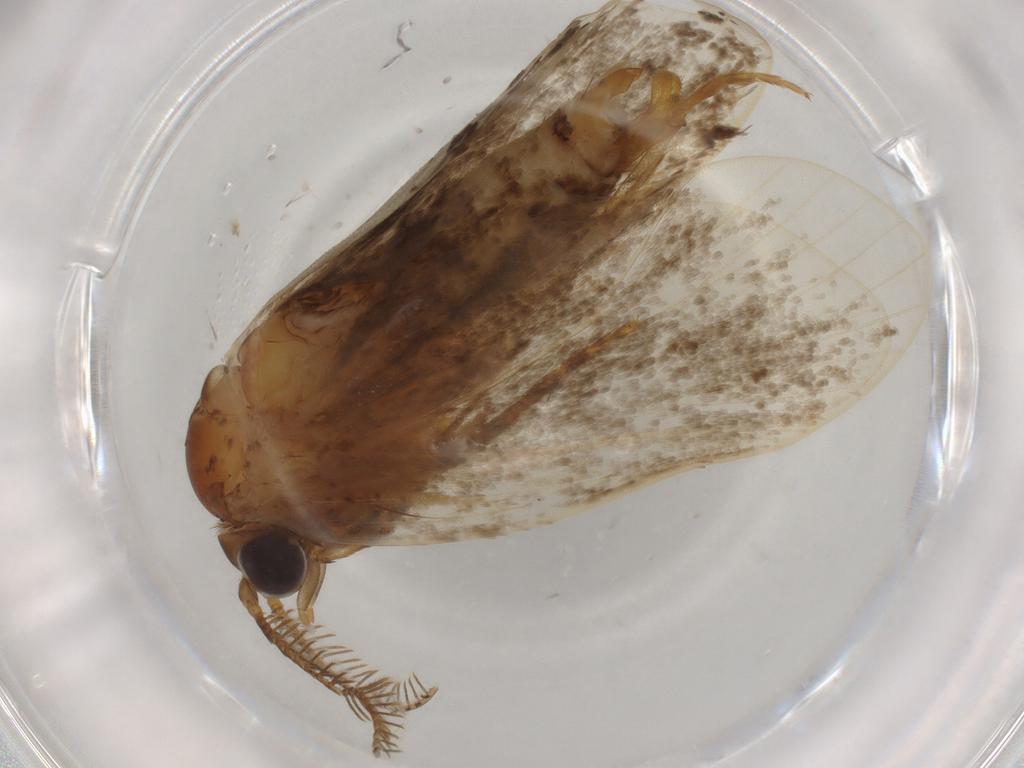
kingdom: Animalia
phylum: Arthropoda
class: Insecta
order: Lepidoptera
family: Eriocottidae
